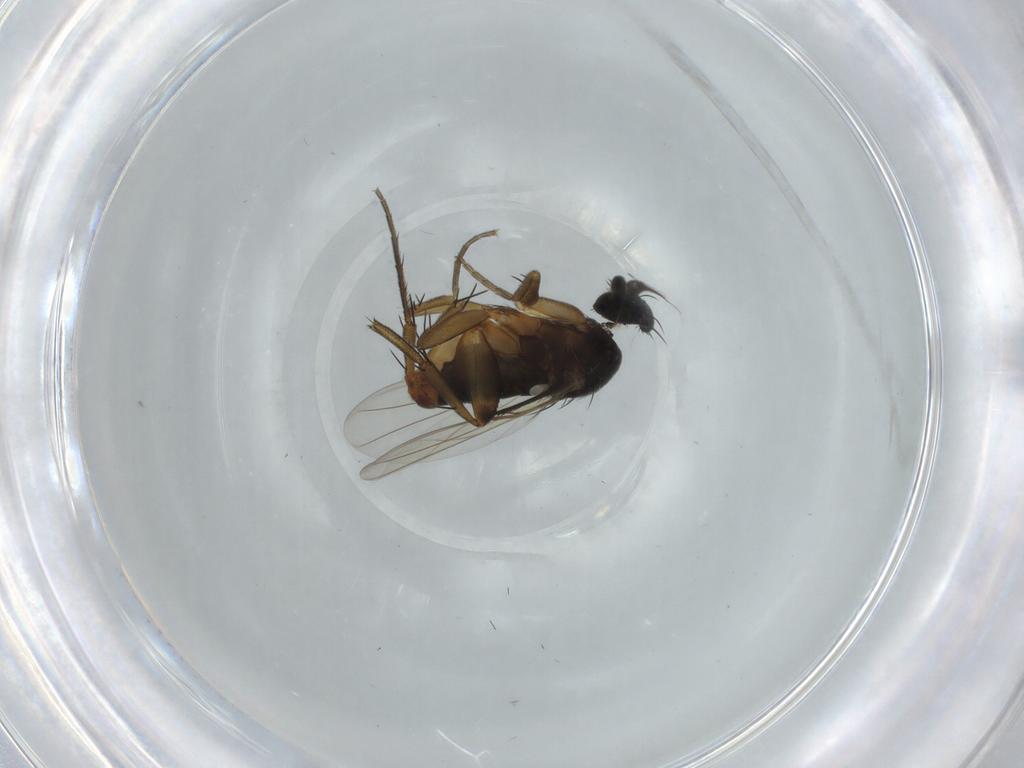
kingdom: Animalia
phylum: Arthropoda
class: Insecta
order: Diptera
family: Phoridae
